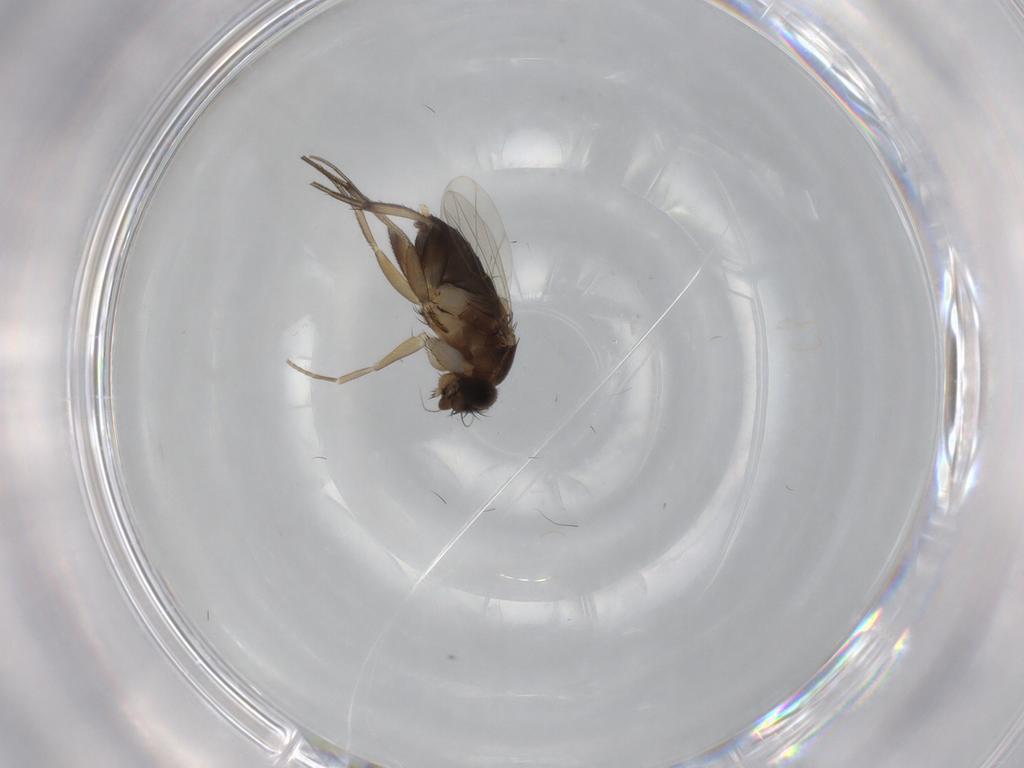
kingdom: Animalia
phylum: Arthropoda
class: Insecta
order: Diptera
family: Phoridae
